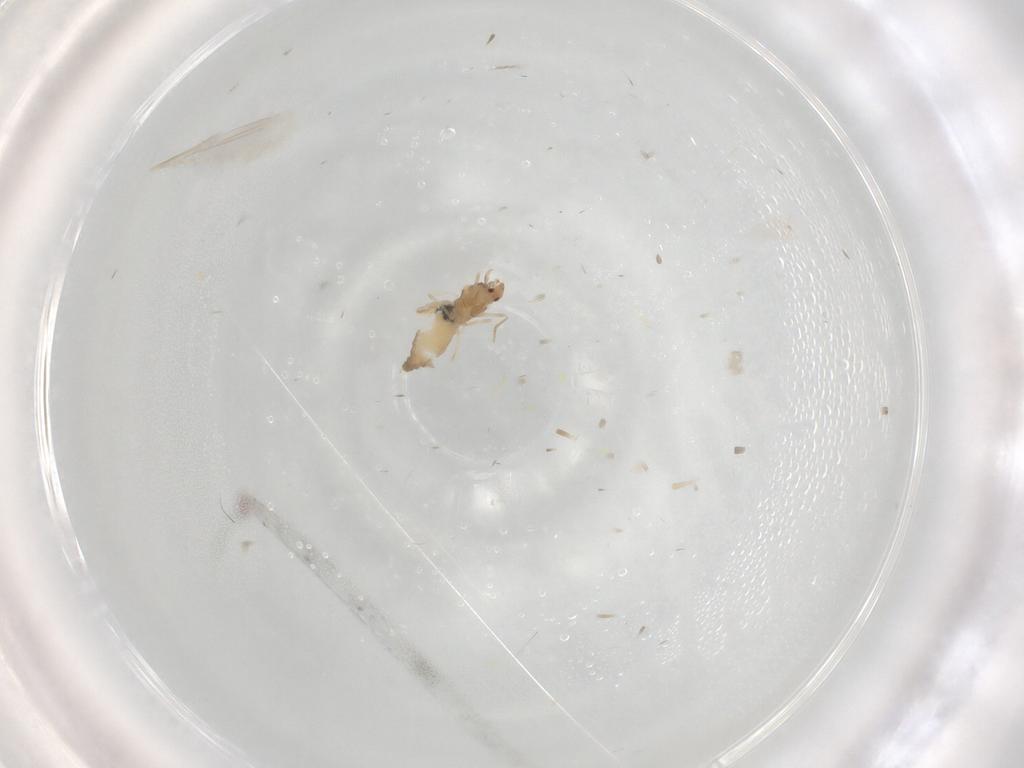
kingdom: Animalia
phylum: Arthropoda
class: Insecta
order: Diptera
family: Cecidomyiidae
